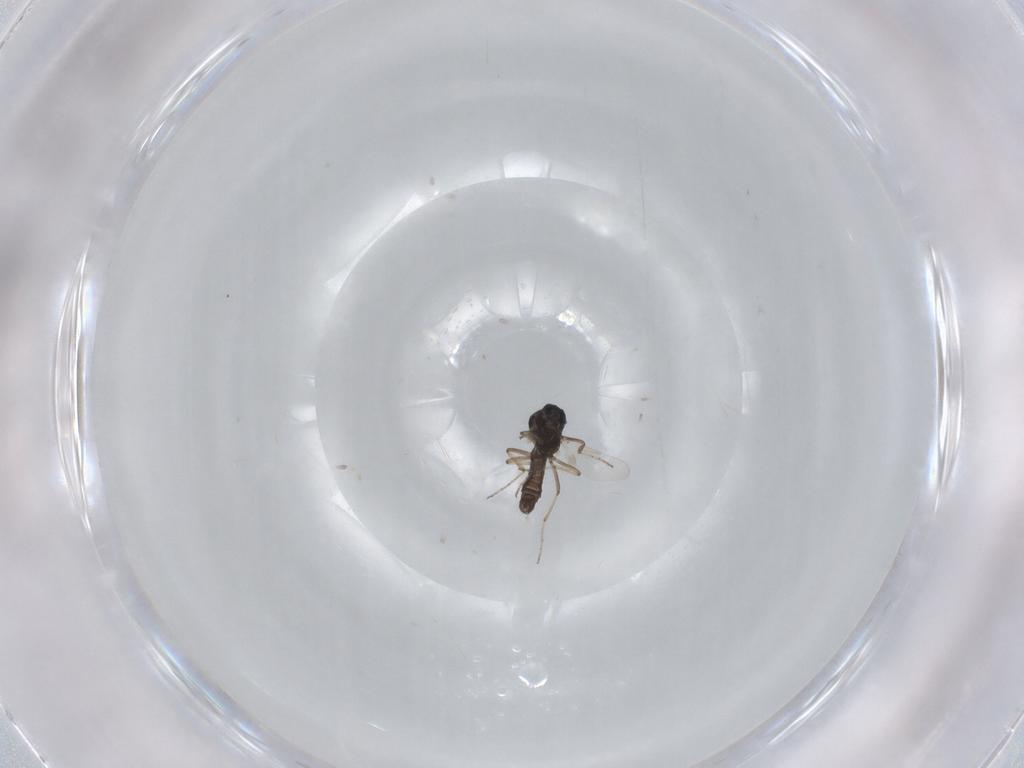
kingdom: Animalia
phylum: Arthropoda
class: Insecta
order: Diptera
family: Ceratopogonidae
